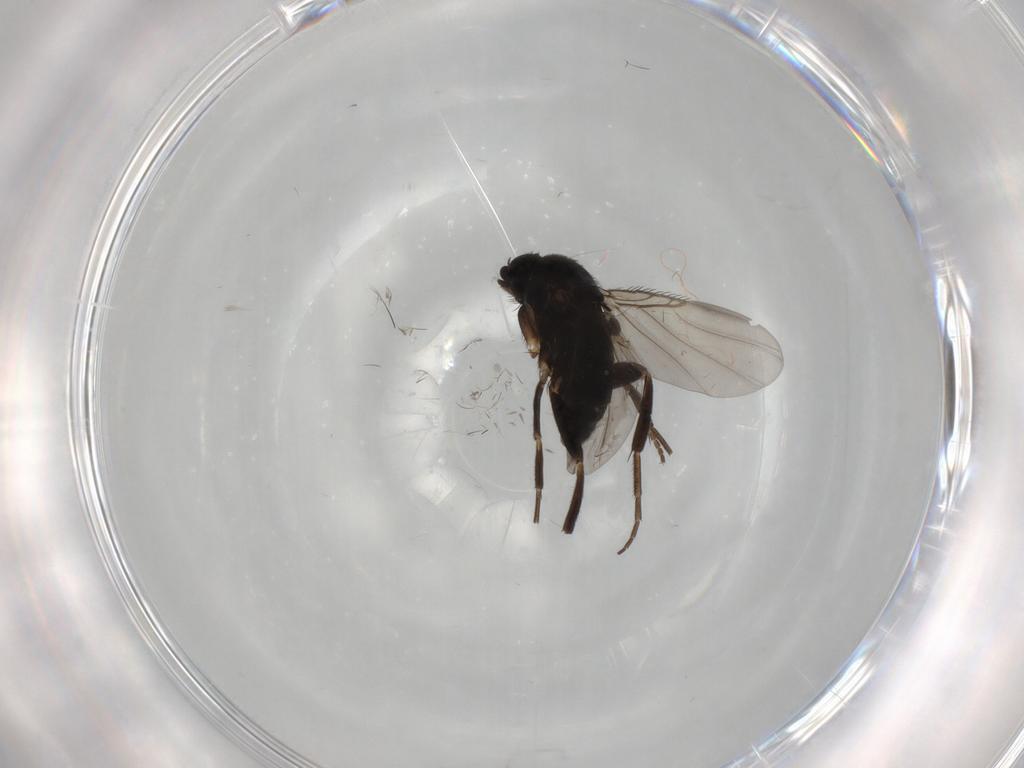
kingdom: Animalia
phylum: Arthropoda
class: Insecta
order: Diptera
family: Phoridae
